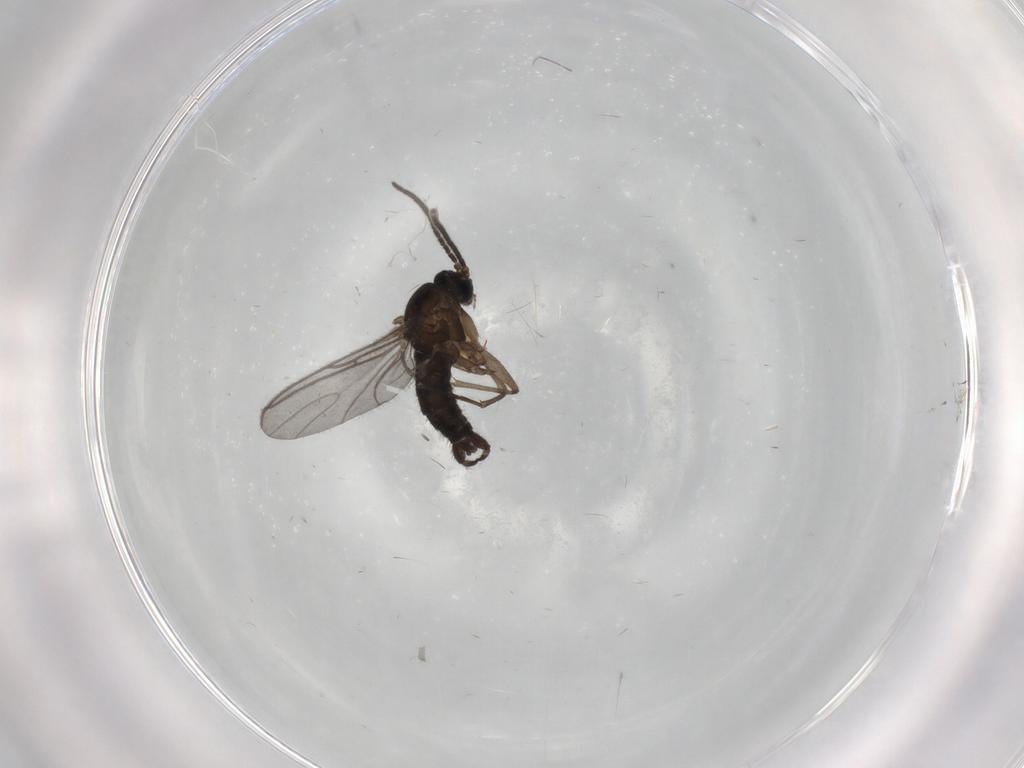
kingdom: Animalia
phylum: Arthropoda
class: Insecta
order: Diptera
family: Sciaridae
